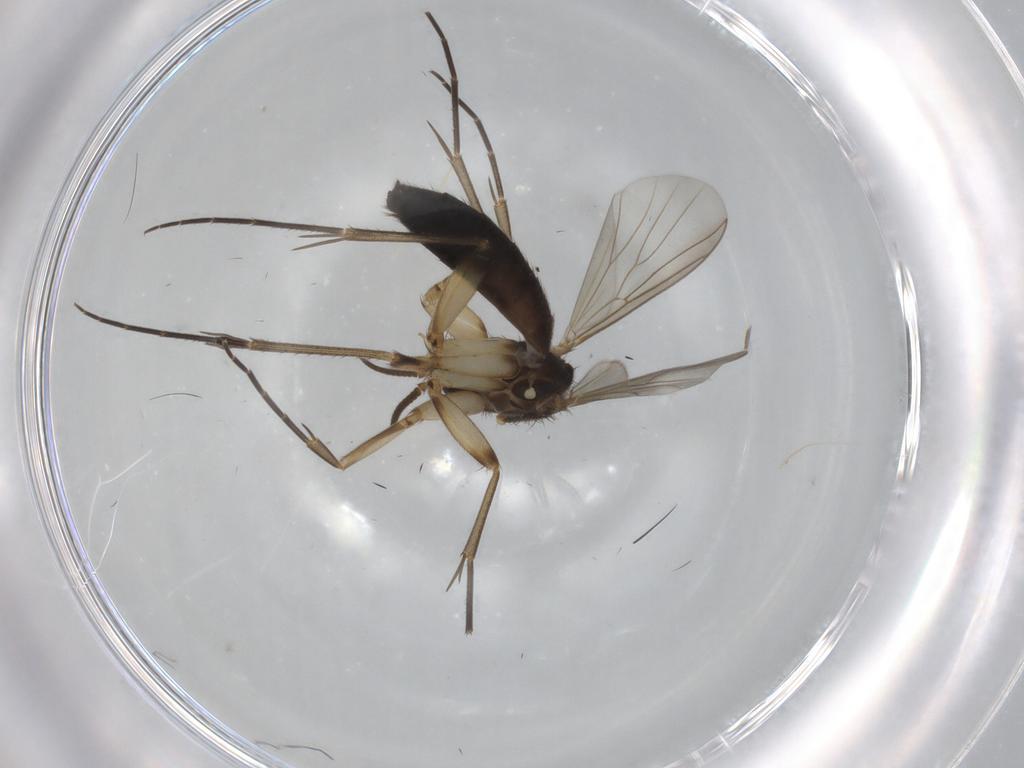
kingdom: Animalia
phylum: Arthropoda
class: Insecta
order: Diptera
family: Mycetophilidae
